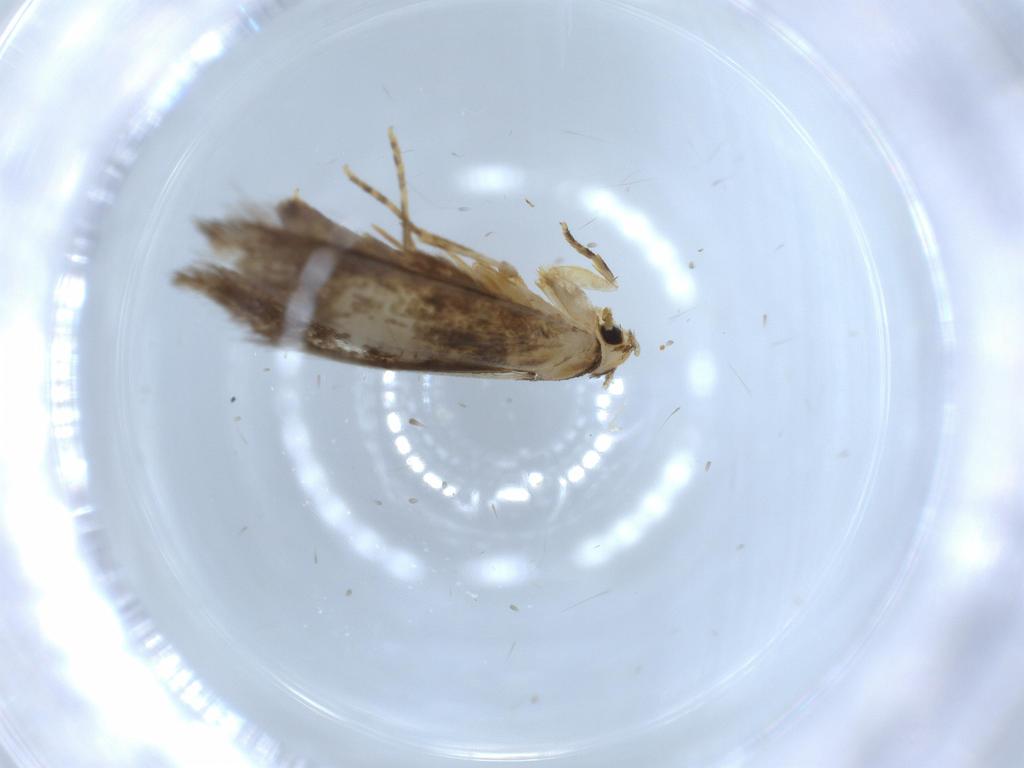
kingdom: Animalia
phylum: Arthropoda
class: Insecta
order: Lepidoptera
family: Tineidae
